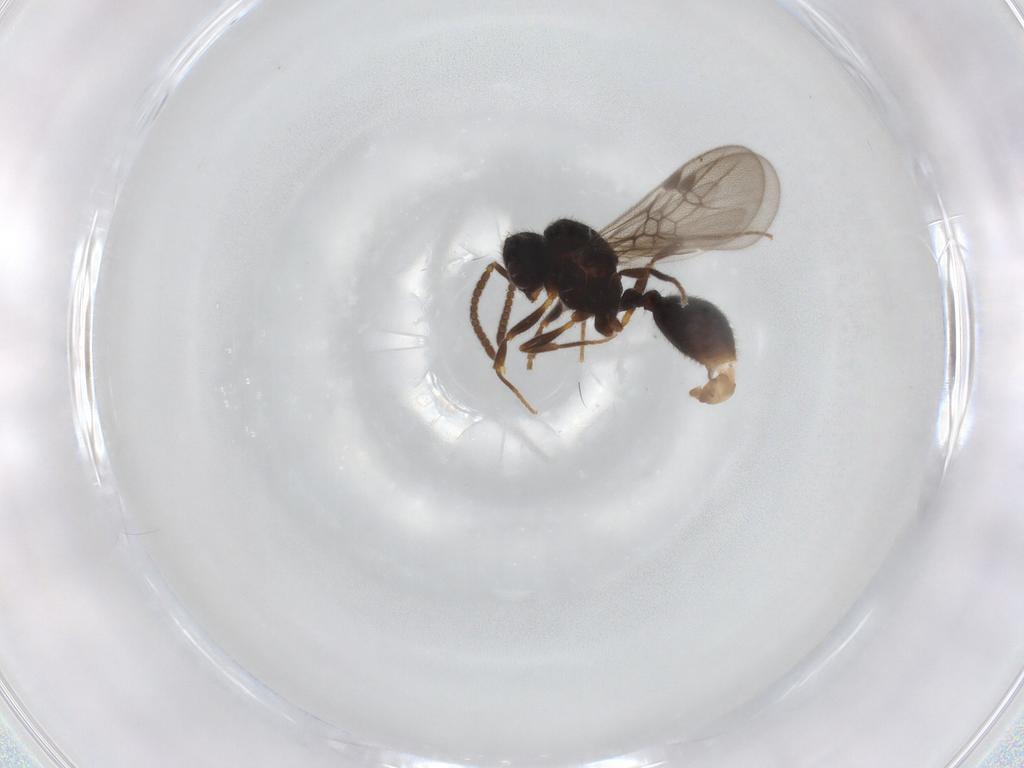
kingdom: Animalia
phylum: Arthropoda
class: Insecta
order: Hymenoptera
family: Formicidae
